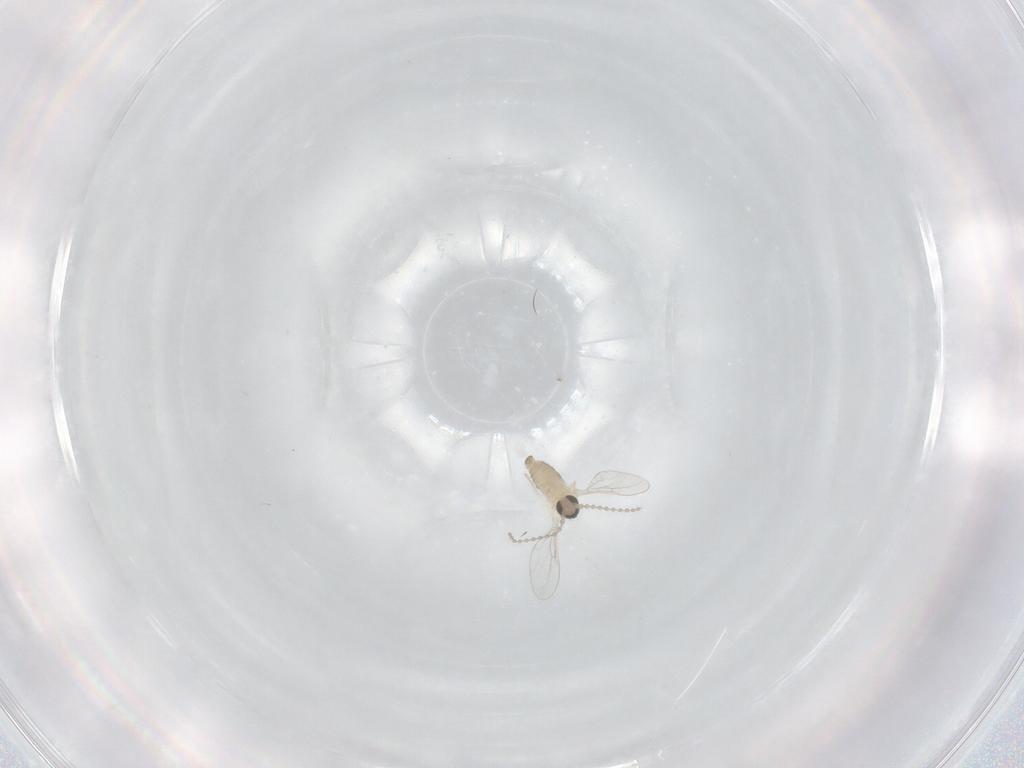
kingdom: Animalia
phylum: Arthropoda
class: Insecta
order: Diptera
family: Cecidomyiidae
